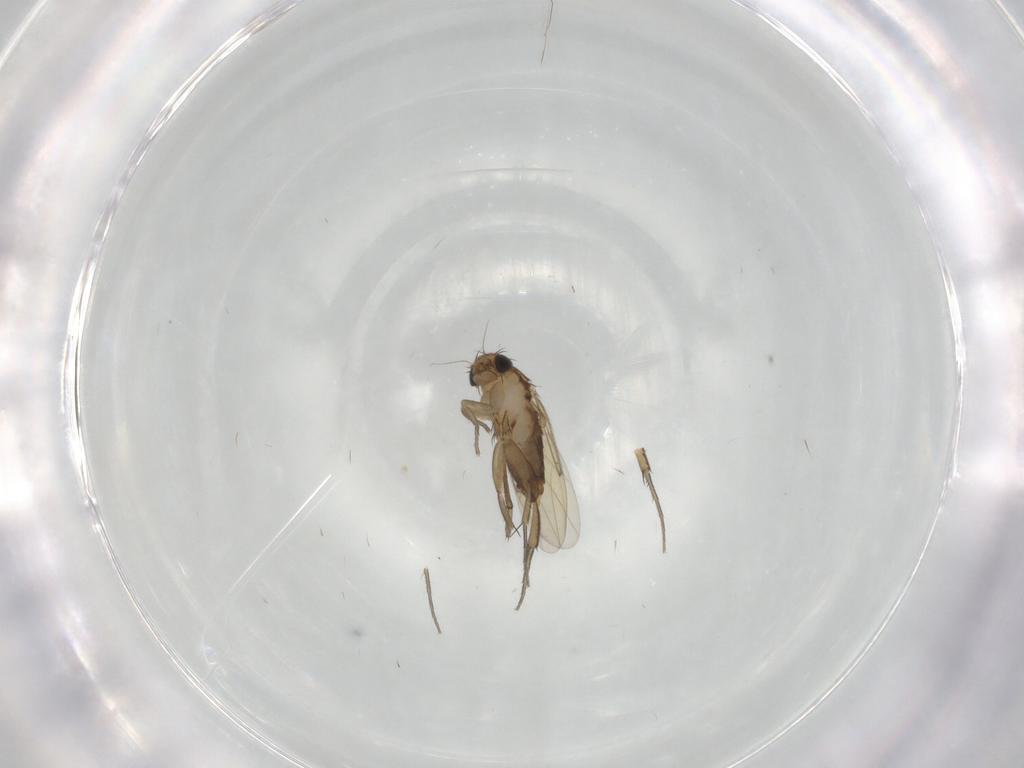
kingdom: Animalia
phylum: Arthropoda
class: Insecta
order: Diptera
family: Phoridae
